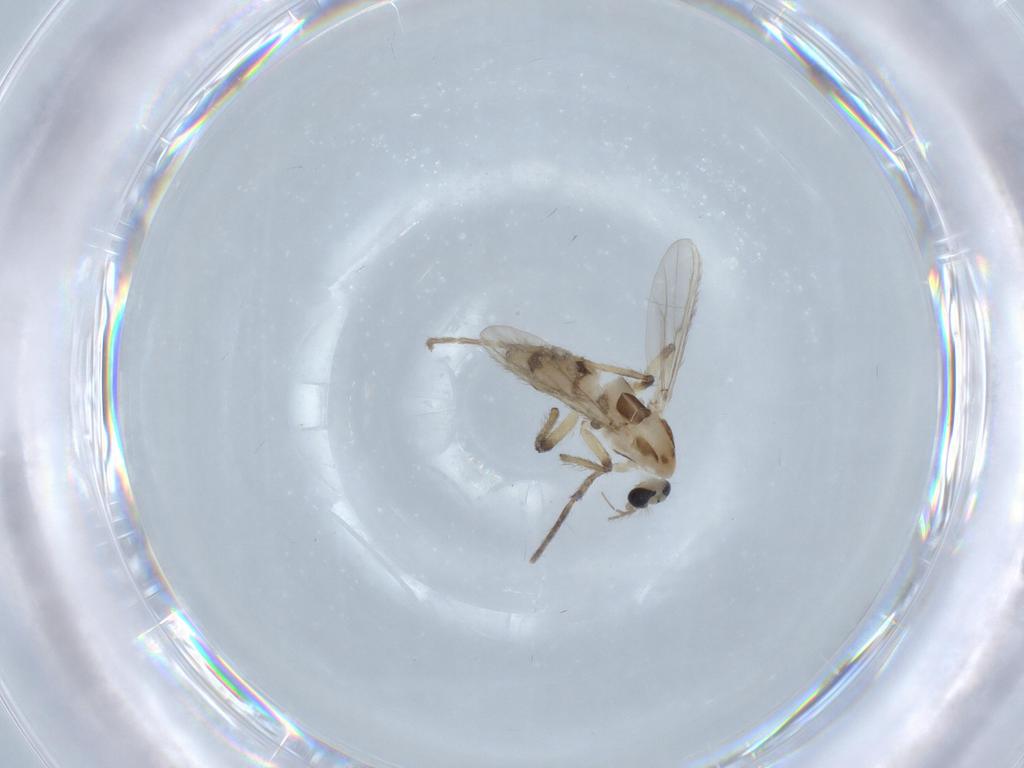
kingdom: Animalia
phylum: Arthropoda
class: Insecta
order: Diptera
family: Chironomidae
